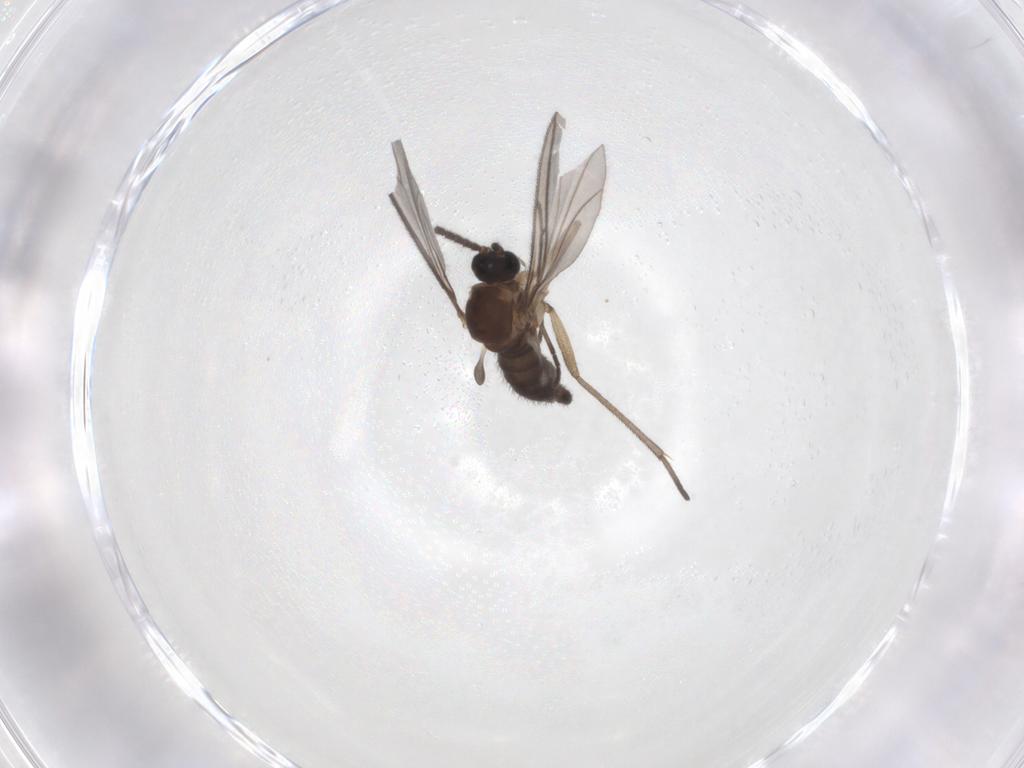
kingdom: Animalia
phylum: Arthropoda
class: Insecta
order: Diptera
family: Sciaridae
